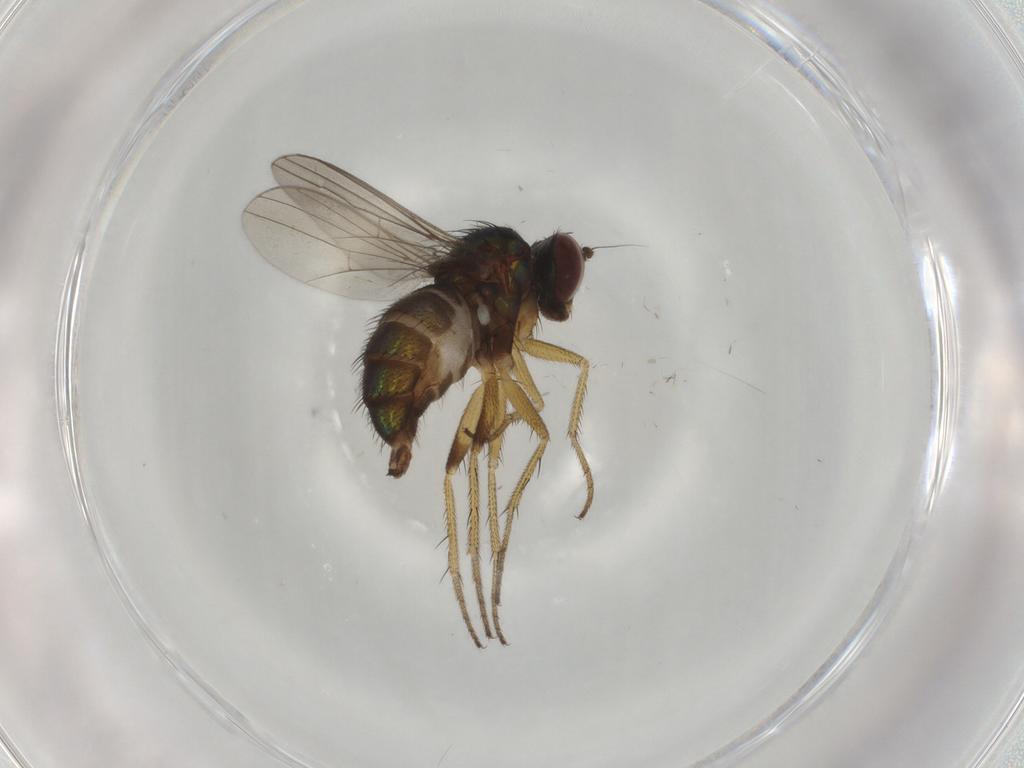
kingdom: Animalia
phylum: Arthropoda
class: Insecta
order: Diptera
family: Dolichopodidae
